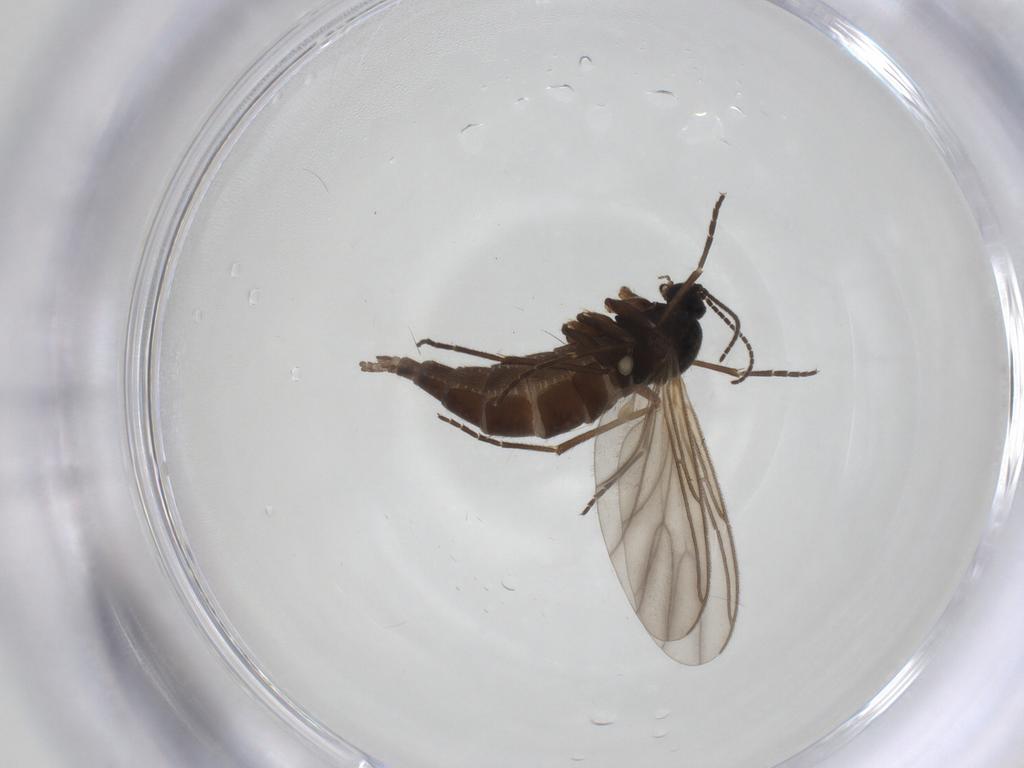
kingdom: Animalia
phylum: Arthropoda
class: Insecta
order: Diptera
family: Sciaridae
